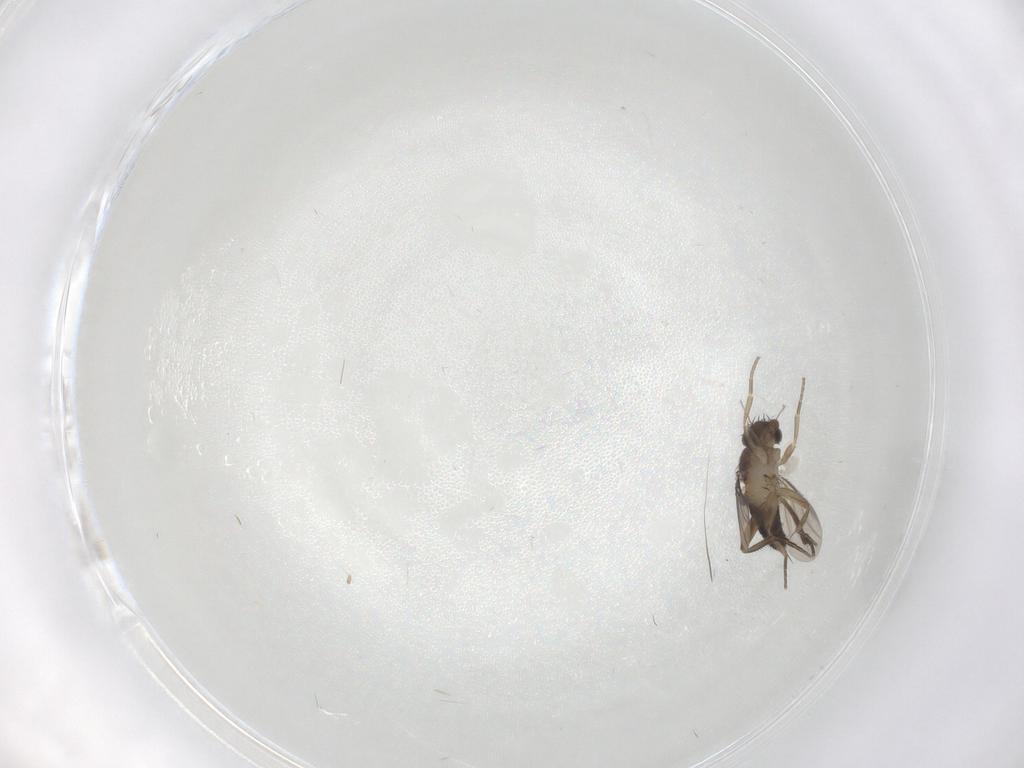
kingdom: Animalia
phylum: Arthropoda
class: Insecta
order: Diptera
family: Phoridae
